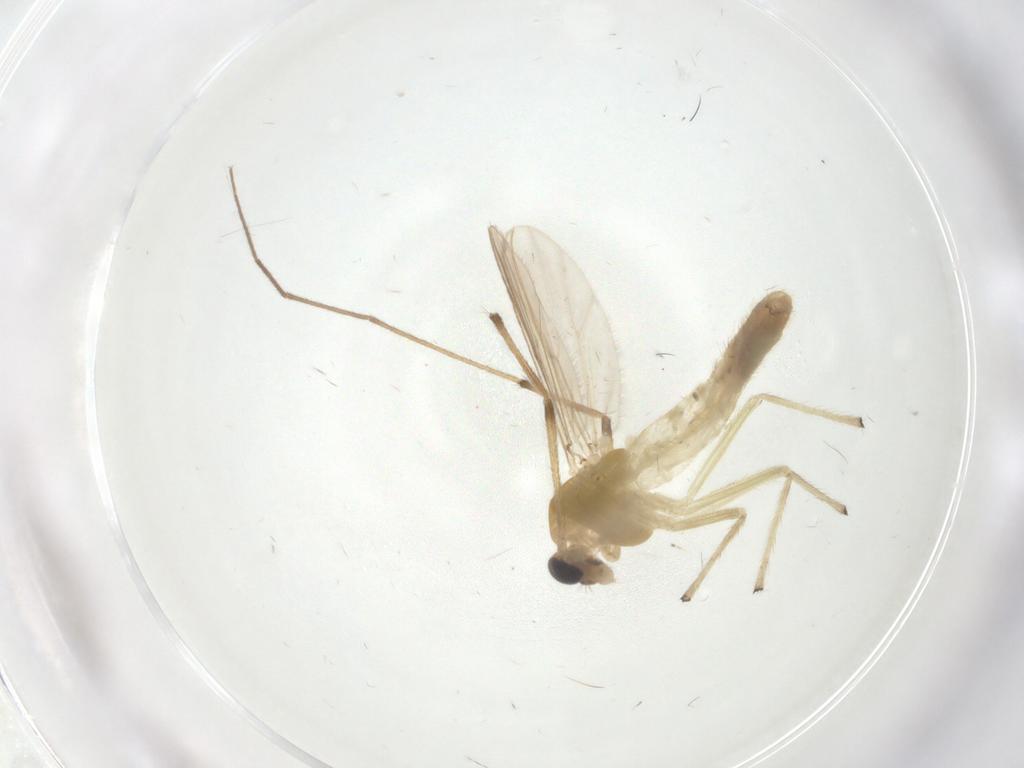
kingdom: Animalia
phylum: Arthropoda
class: Insecta
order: Diptera
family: Chironomidae
